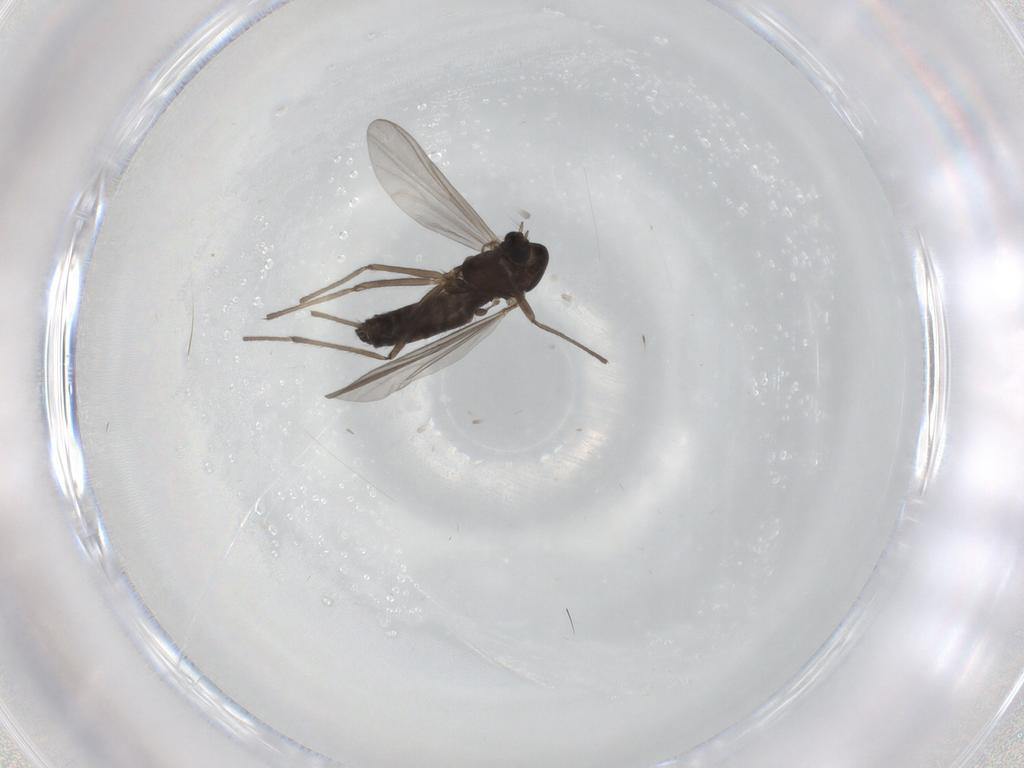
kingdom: Animalia
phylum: Arthropoda
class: Insecta
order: Diptera
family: Chironomidae
